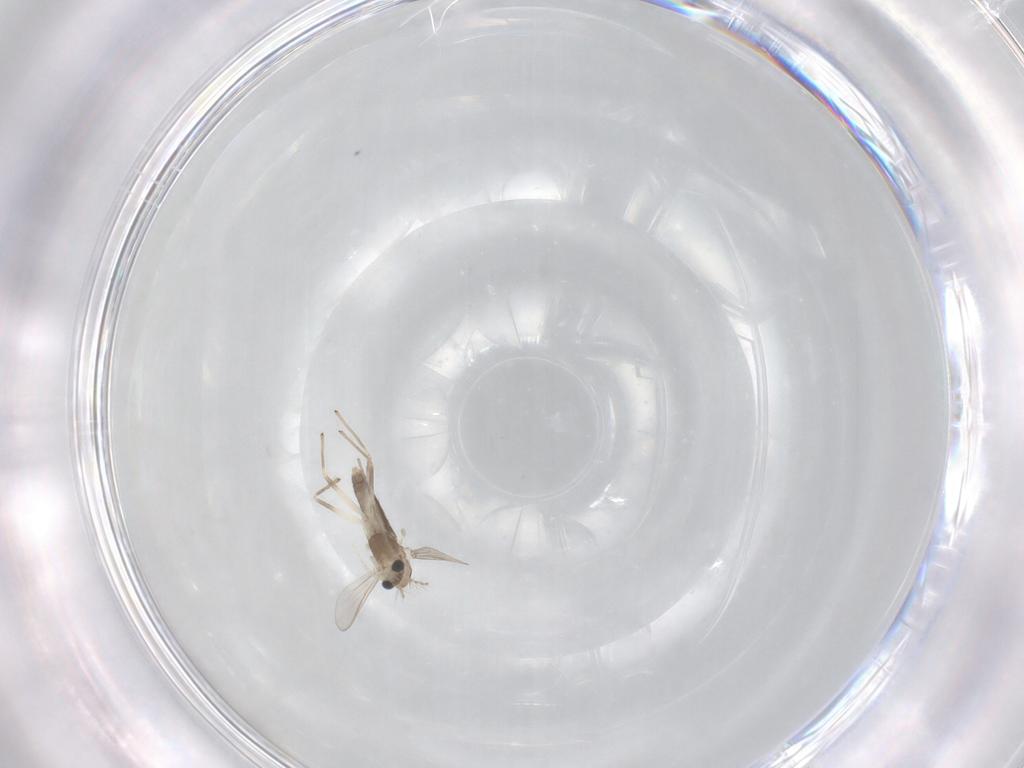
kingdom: Animalia
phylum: Arthropoda
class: Insecta
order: Diptera
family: Chironomidae
